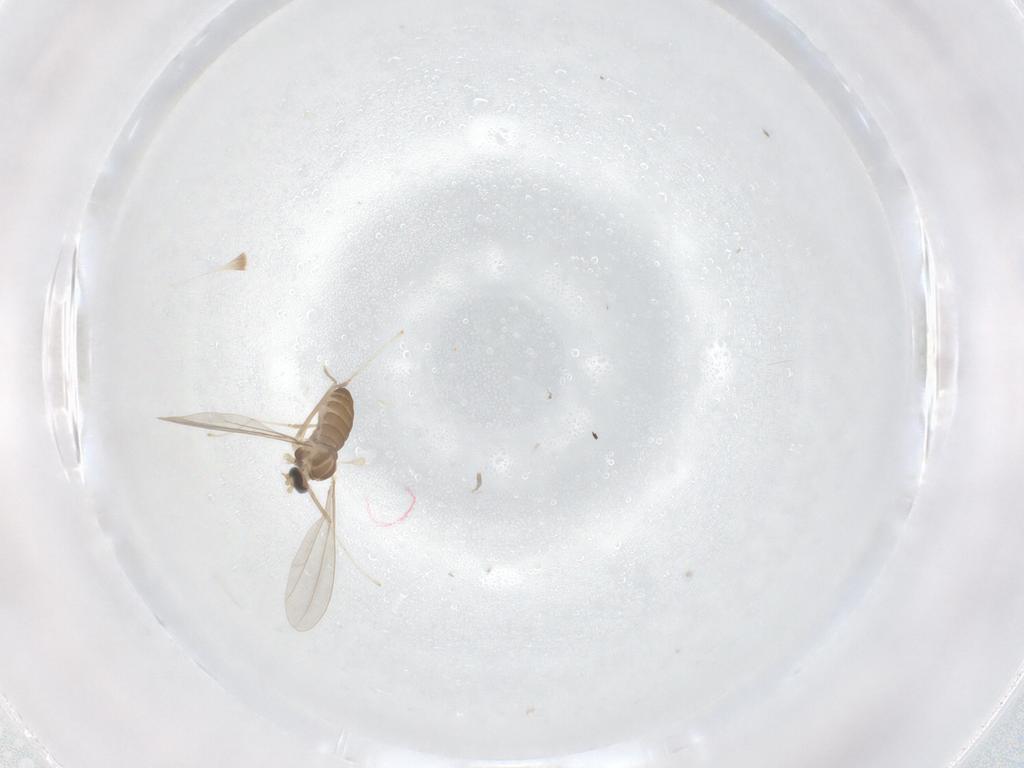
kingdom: Animalia
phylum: Arthropoda
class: Insecta
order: Diptera
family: Cecidomyiidae
